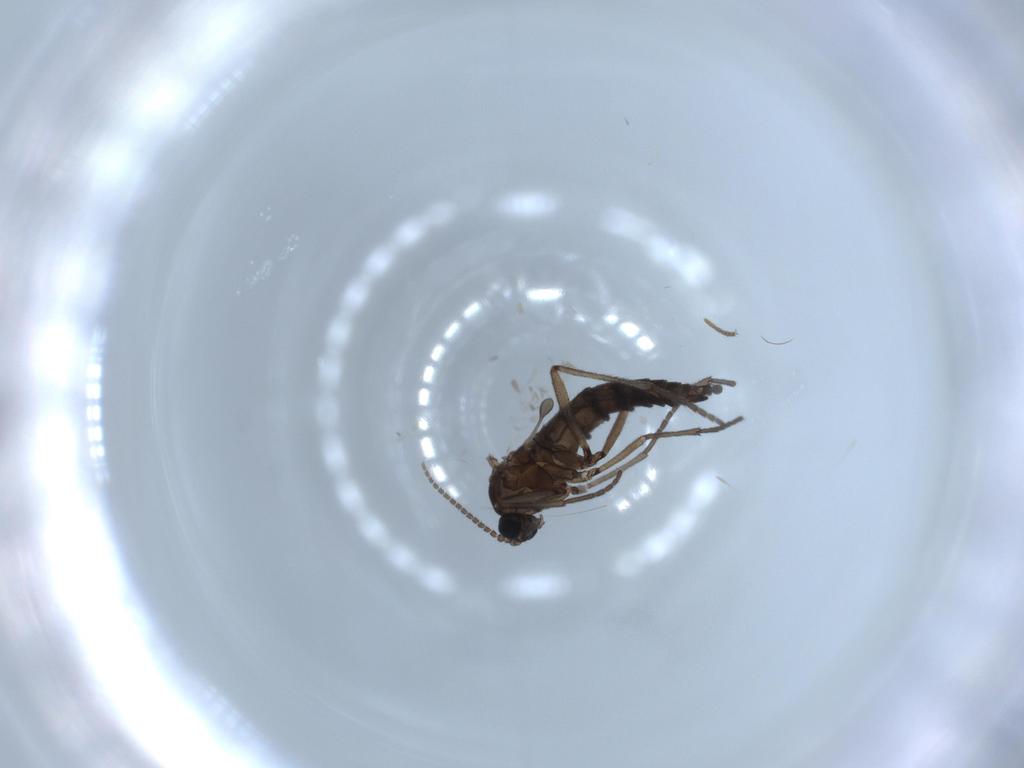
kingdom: Animalia
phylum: Arthropoda
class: Insecta
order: Diptera
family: Sciaridae
